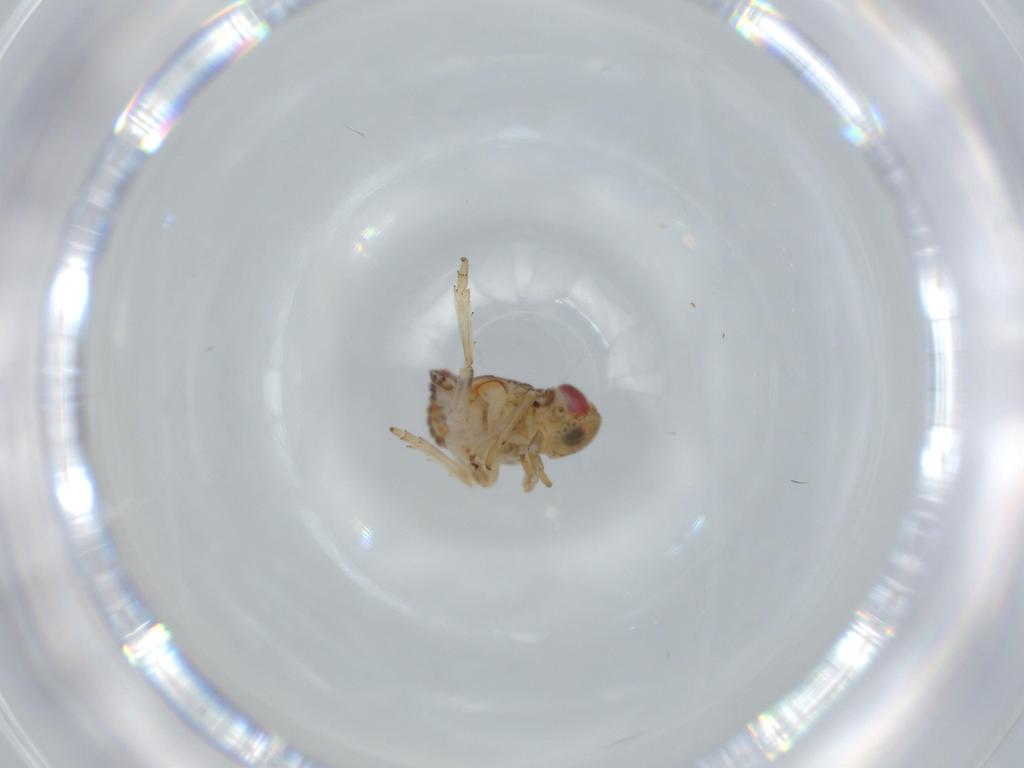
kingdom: Animalia
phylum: Arthropoda
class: Insecta
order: Hemiptera
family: Issidae
